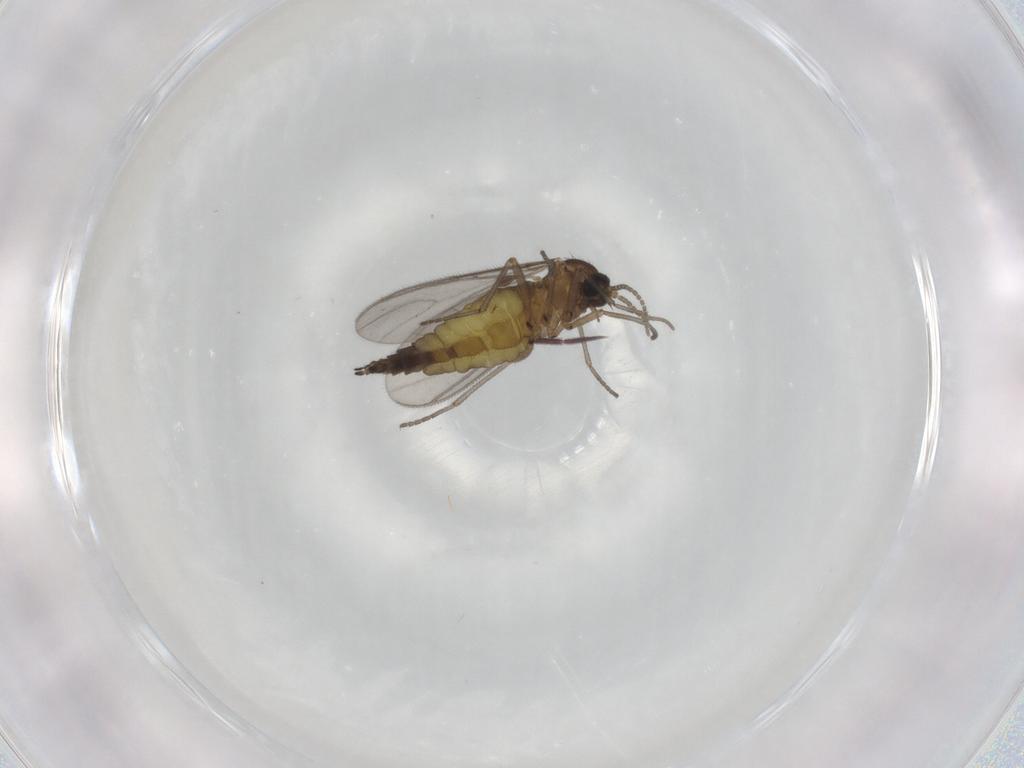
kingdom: Animalia
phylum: Arthropoda
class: Insecta
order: Diptera
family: Sciaridae
